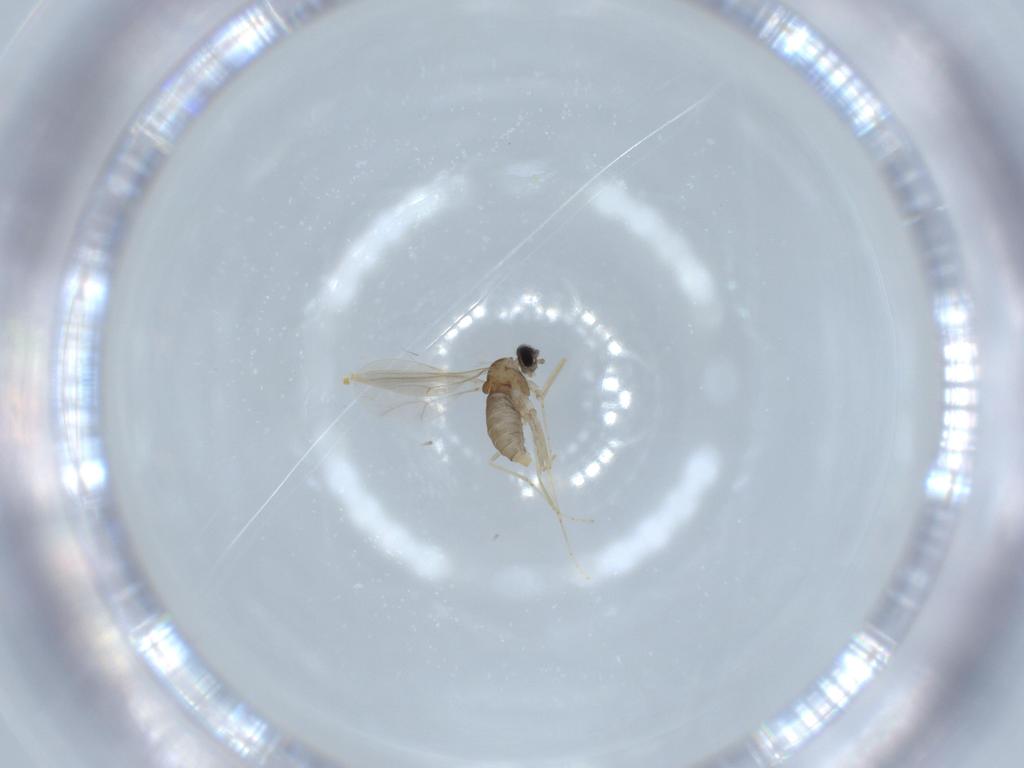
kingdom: Animalia
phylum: Arthropoda
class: Insecta
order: Diptera
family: Cecidomyiidae
